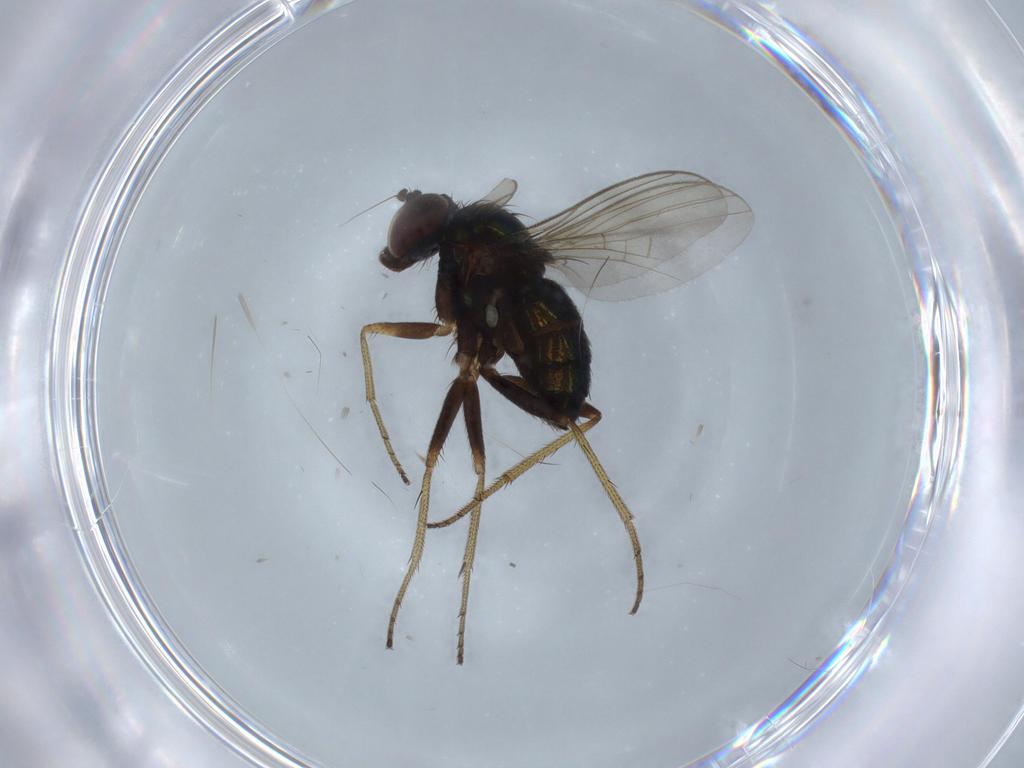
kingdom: Animalia
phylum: Arthropoda
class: Insecta
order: Diptera
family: Dolichopodidae
